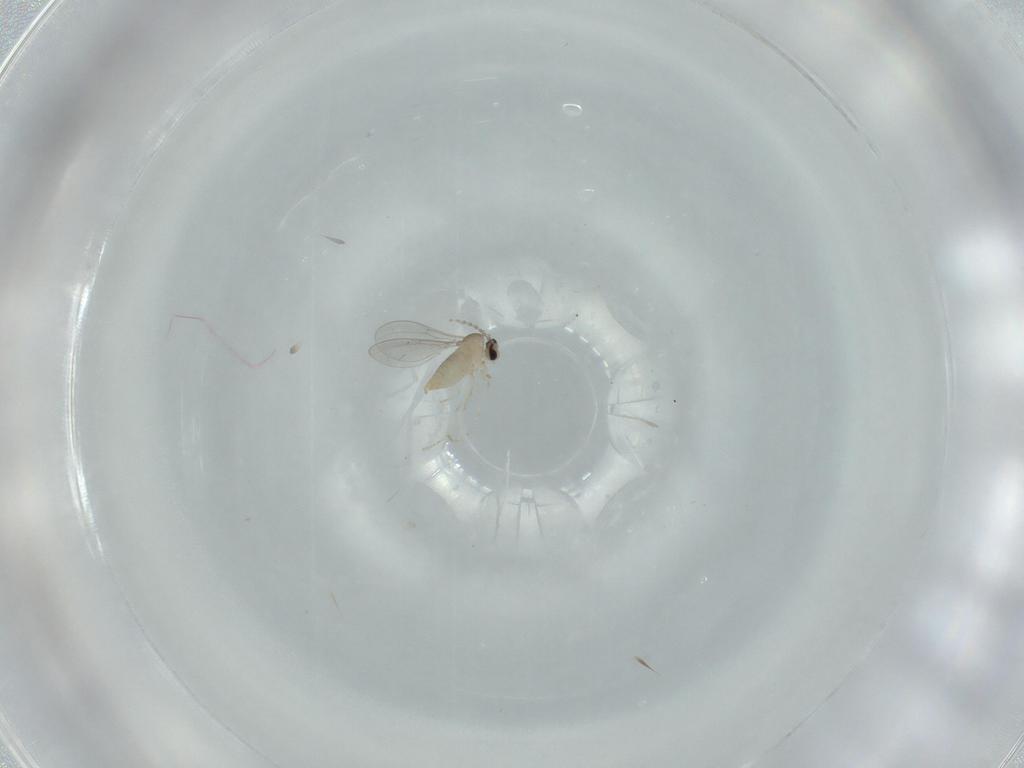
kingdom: Animalia
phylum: Arthropoda
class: Insecta
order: Diptera
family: Cecidomyiidae
